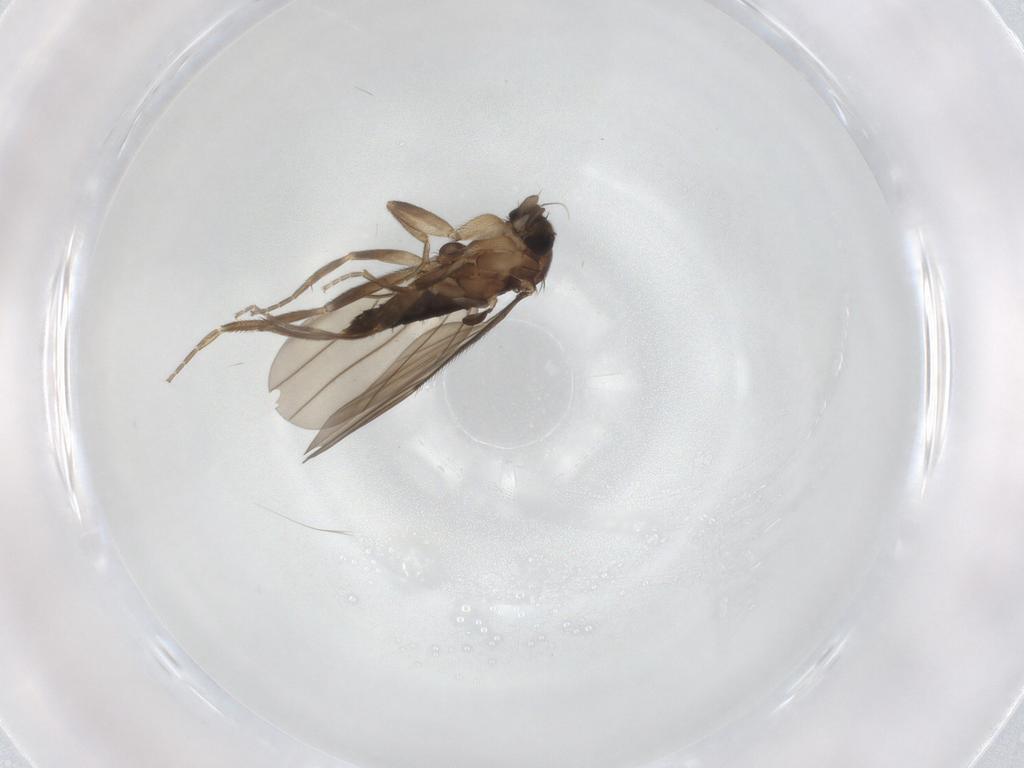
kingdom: Animalia
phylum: Arthropoda
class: Insecta
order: Diptera
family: Phoridae
